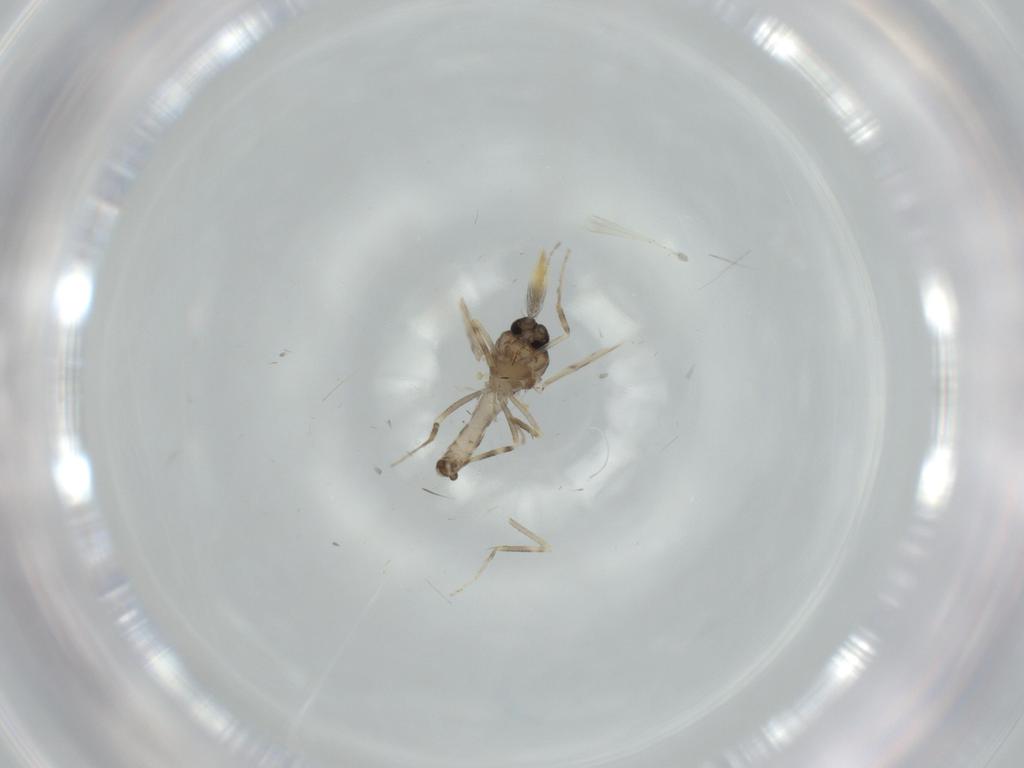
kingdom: Animalia
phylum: Arthropoda
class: Insecta
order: Diptera
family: Ceratopogonidae
